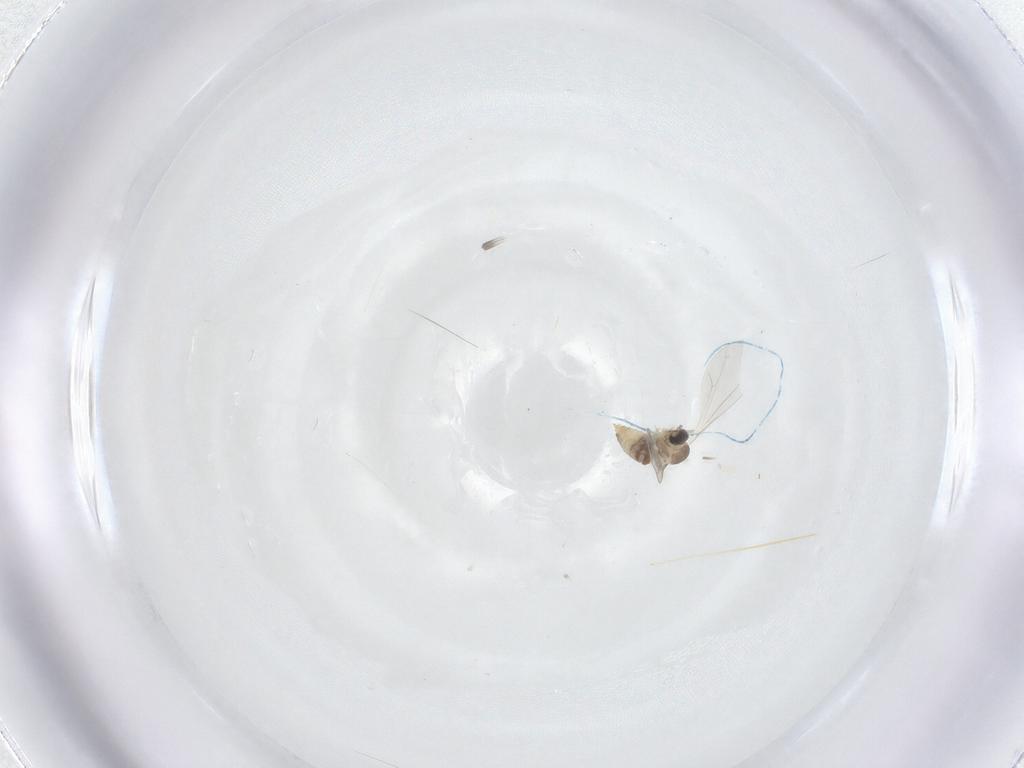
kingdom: Animalia
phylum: Arthropoda
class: Insecta
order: Diptera
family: Cecidomyiidae
